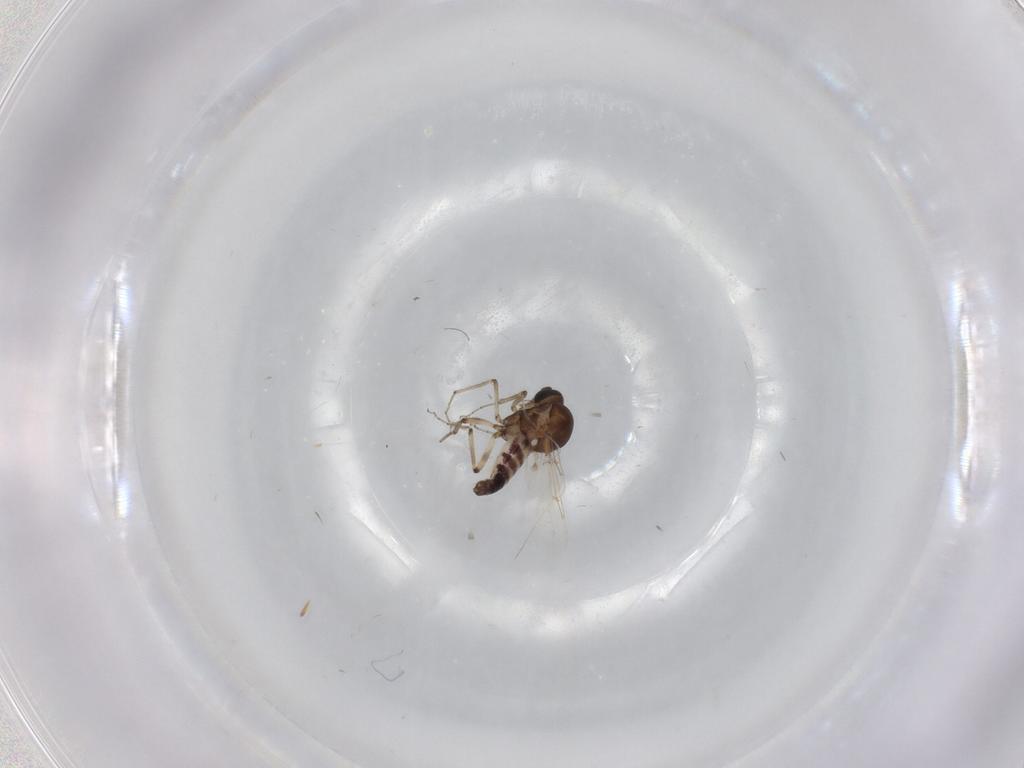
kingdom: Animalia
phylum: Arthropoda
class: Insecta
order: Diptera
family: Ceratopogonidae
